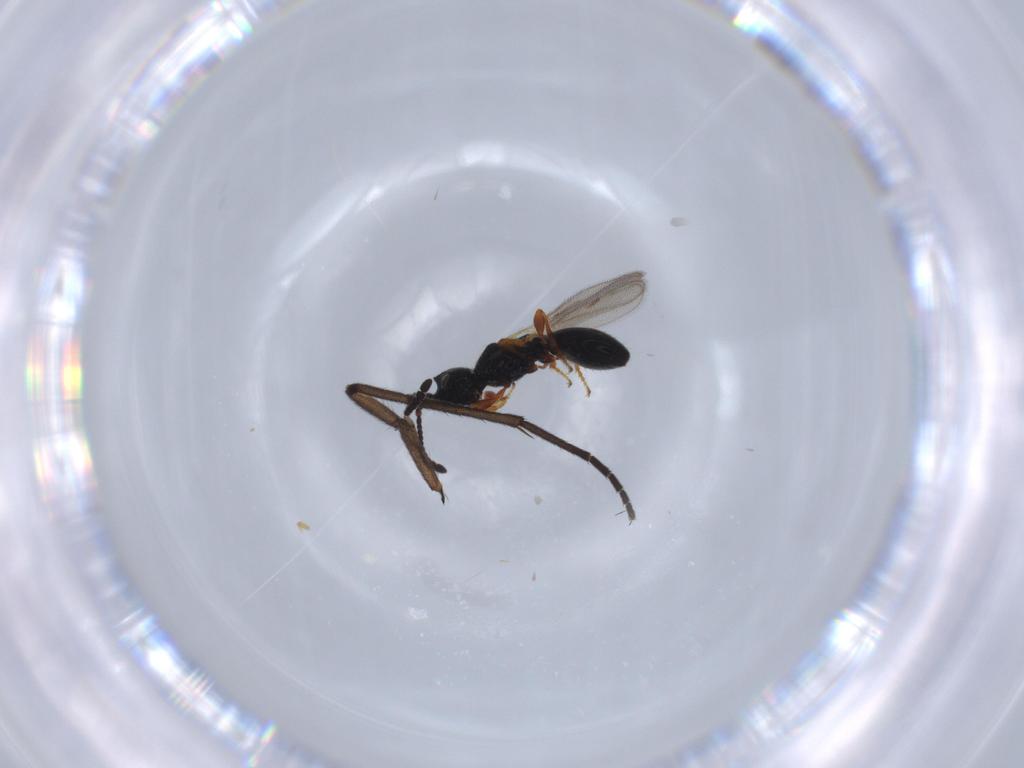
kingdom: Animalia
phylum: Arthropoda
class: Insecta
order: Hymenoptera
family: Diapriidae
